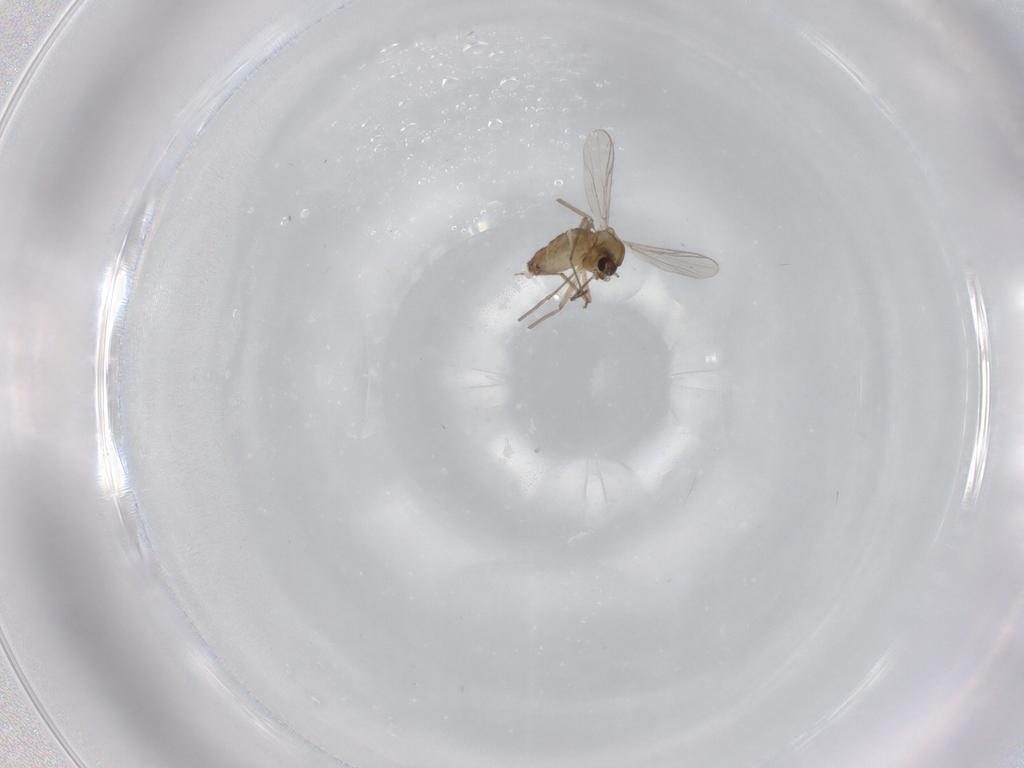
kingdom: Animalia
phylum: Arthropoda
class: Insecta
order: Diptera
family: Chironomidae
